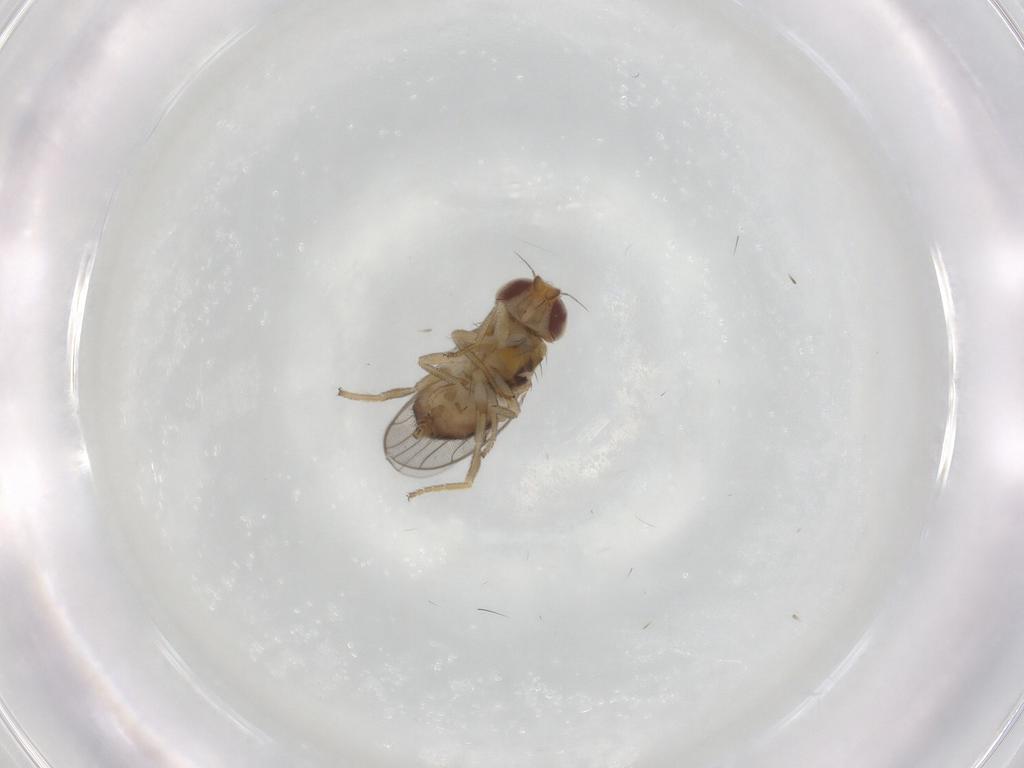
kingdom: Animalia
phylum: Arthropoda
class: Insecta
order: Diptera
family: Chloropidae
